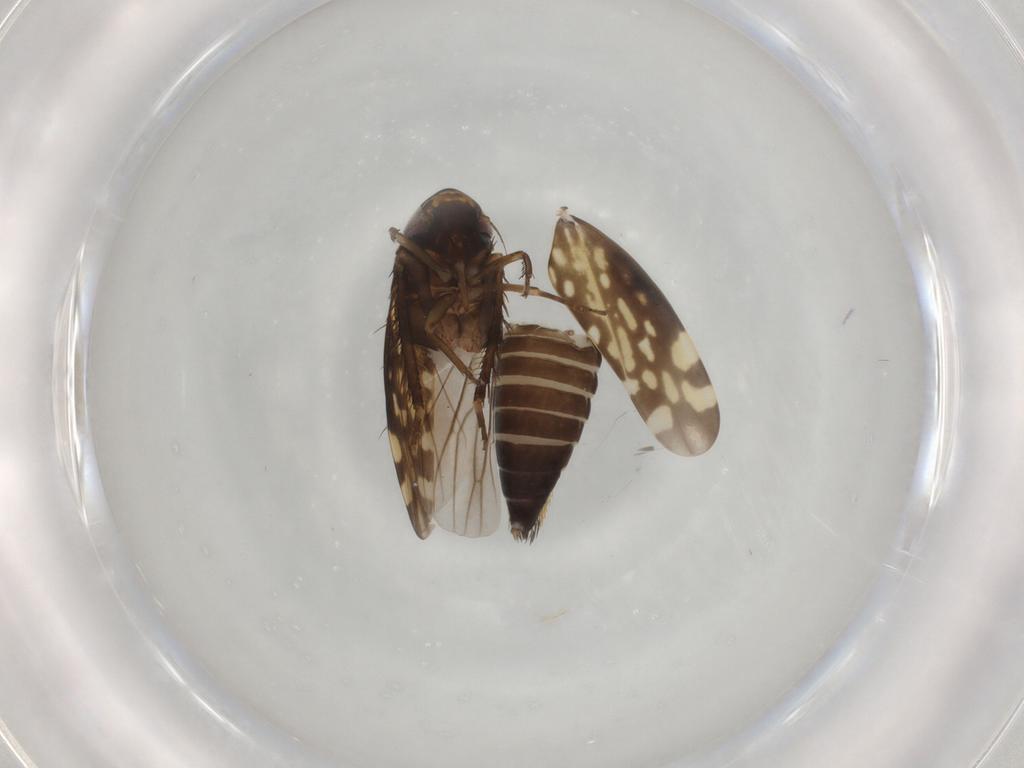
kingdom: Animalia
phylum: Arthropoda
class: Insecta
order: Hemiptera
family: Cicadellidae
